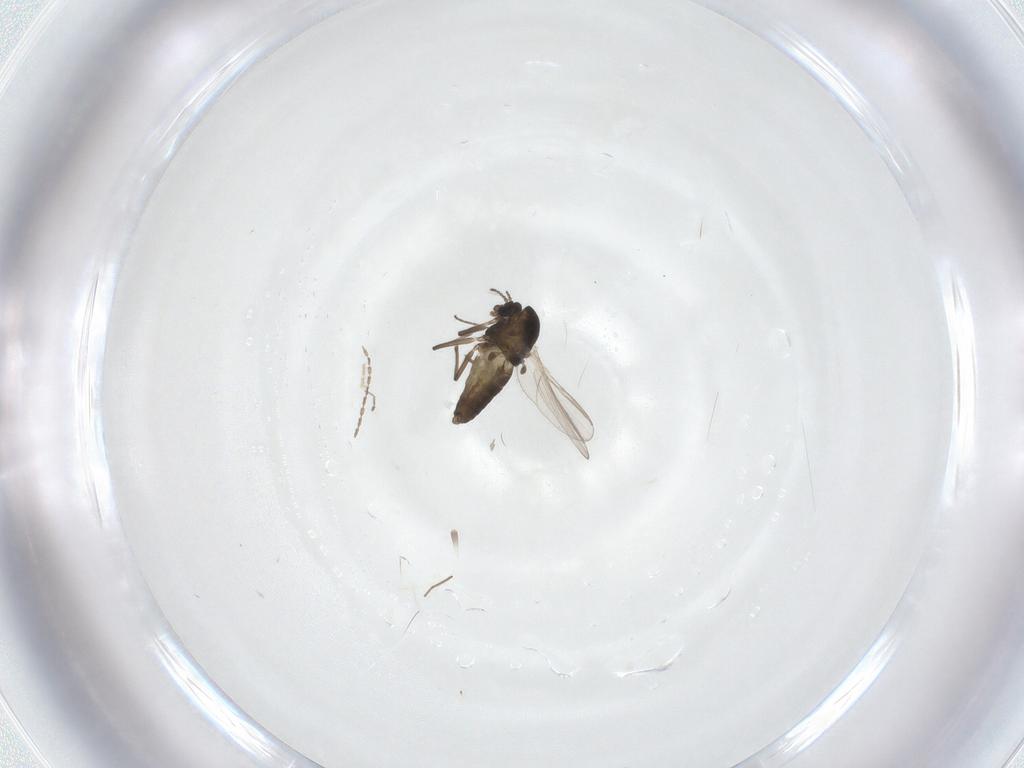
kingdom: Animalia
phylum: Arthropoda
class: Insecta
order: Diptera
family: Chironomidae
